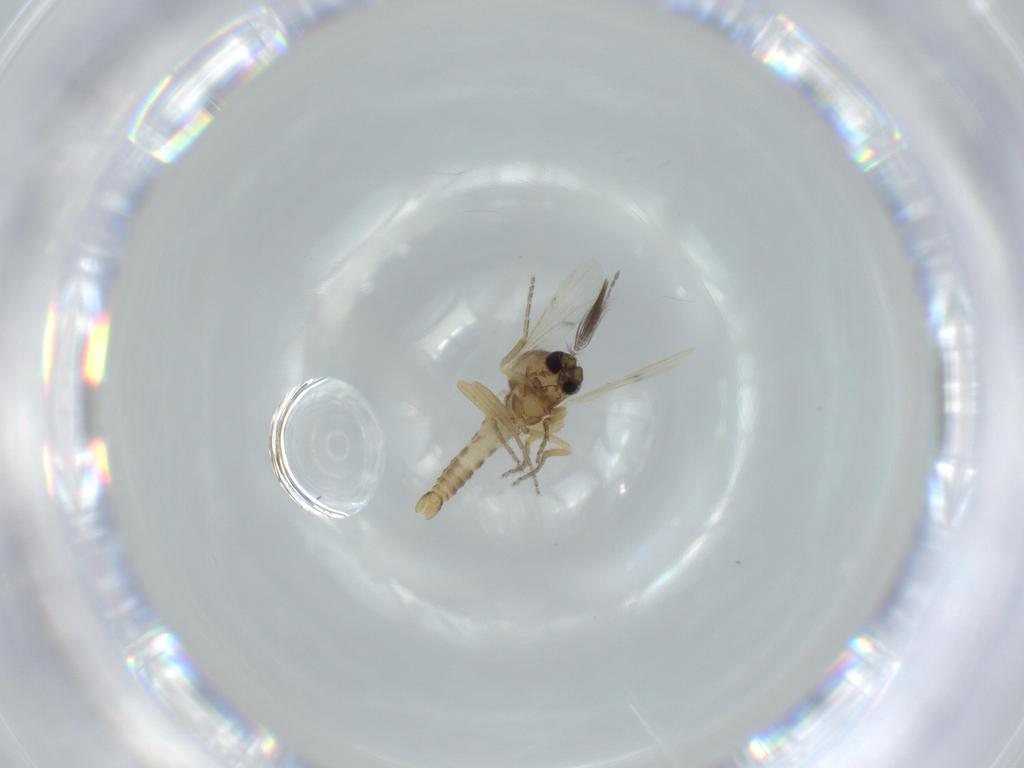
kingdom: Animalia
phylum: Arthropoda
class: Insecta
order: Diptera
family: Ceratopogonidae
